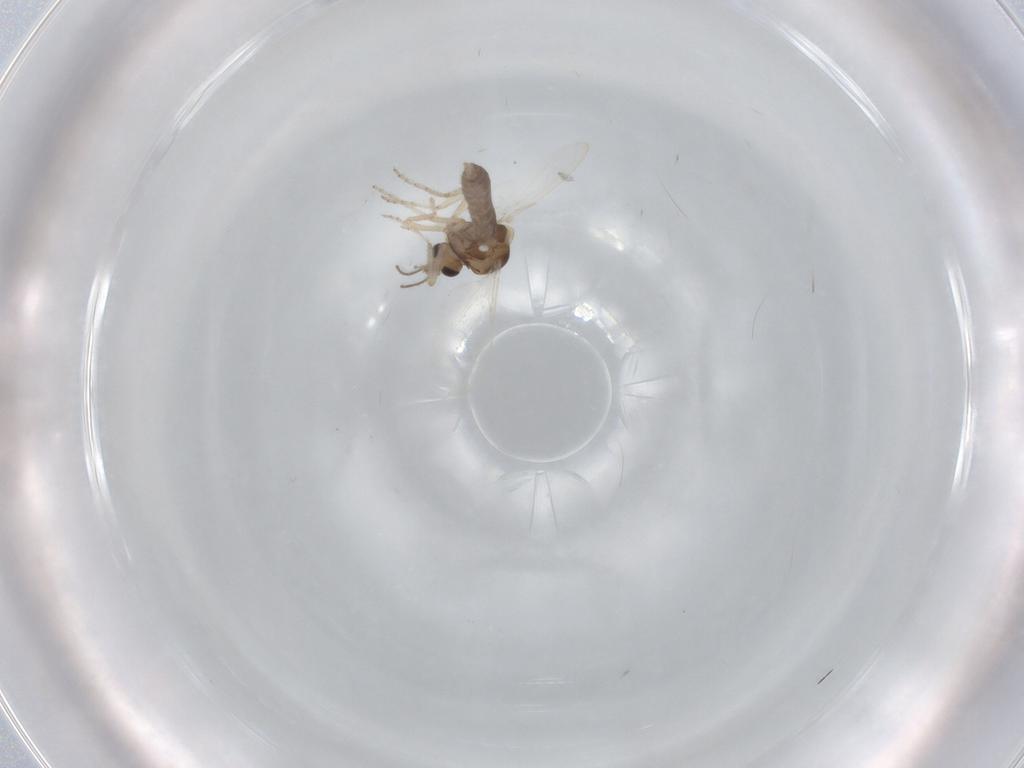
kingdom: Animalia
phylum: Arthropoda
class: Insecta
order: Diptera
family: Ceratopogonidae
